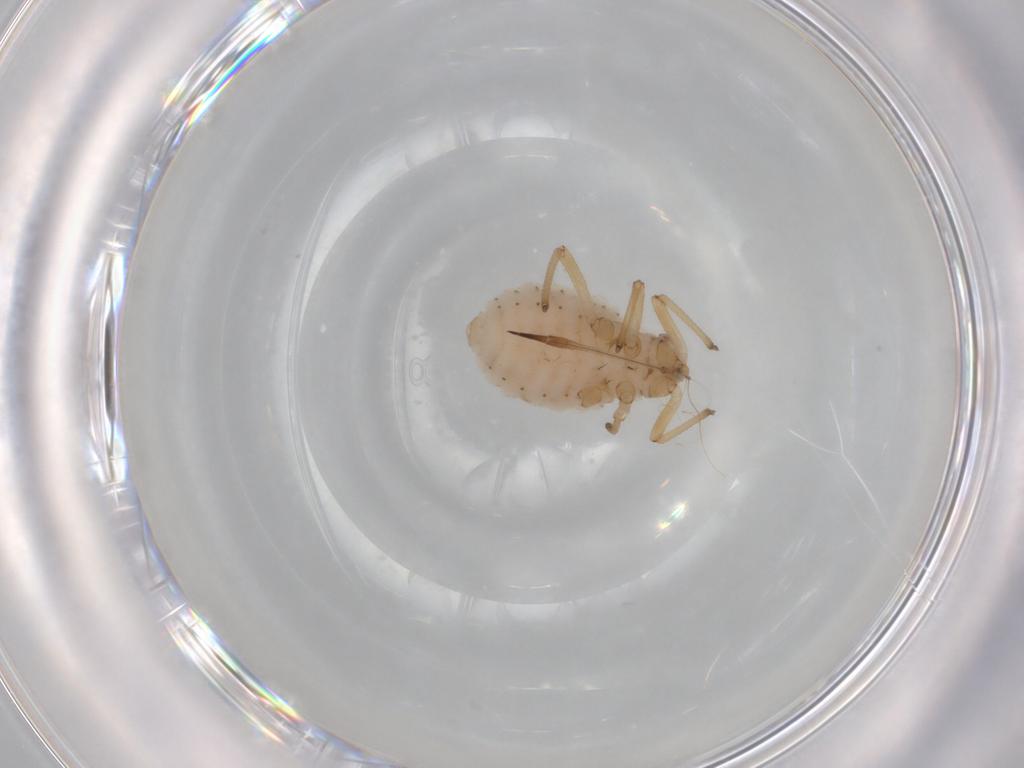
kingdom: Animalia
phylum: Arthropoda
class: Insecta
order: Hemiptera
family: Aphididae
